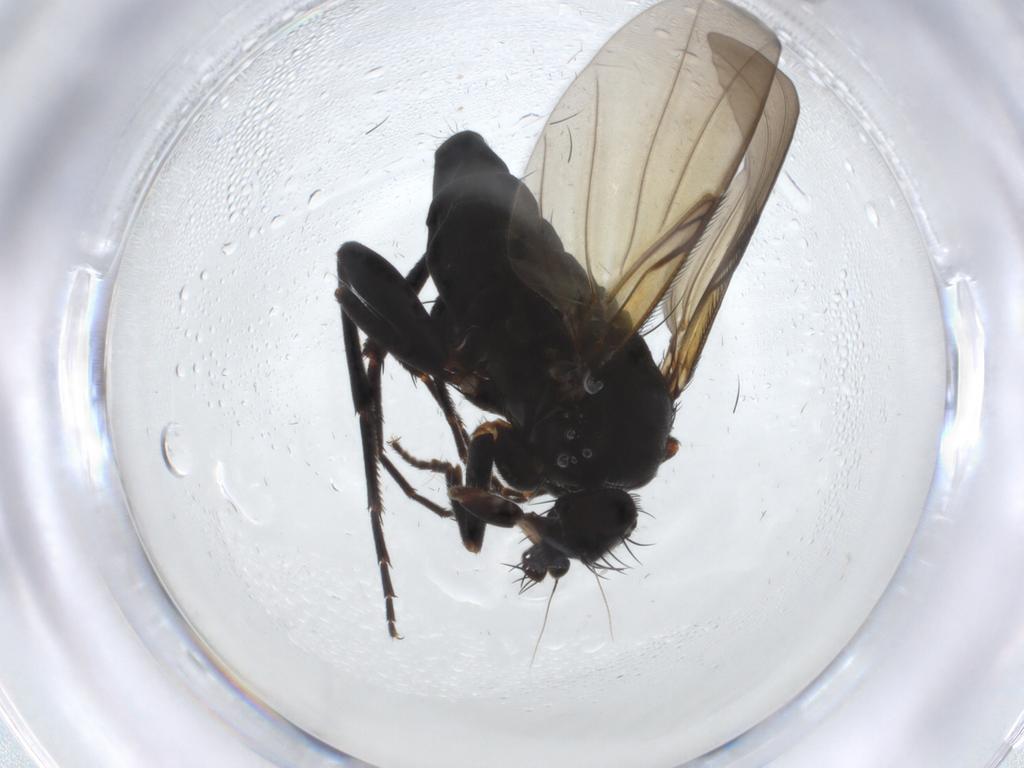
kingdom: Animalia
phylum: Arthropoda
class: Insecta
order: Diptera
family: Phoridae
